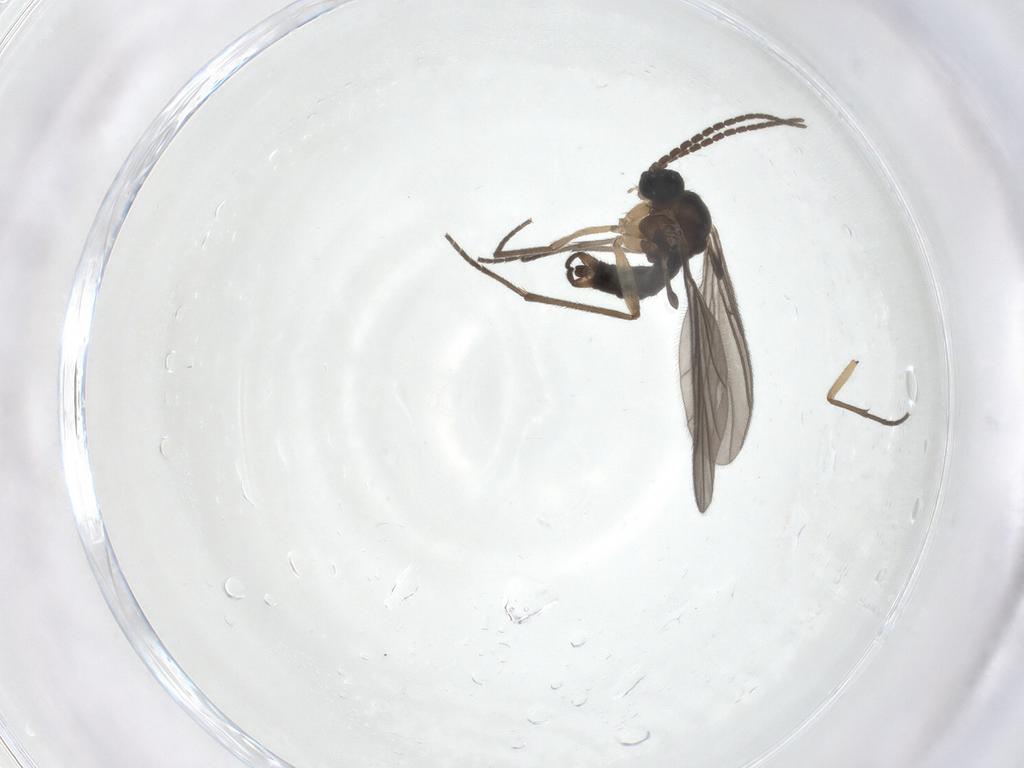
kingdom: Animalia
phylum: Arthropoda
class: Insecta
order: Diptera
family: Sciaridae
